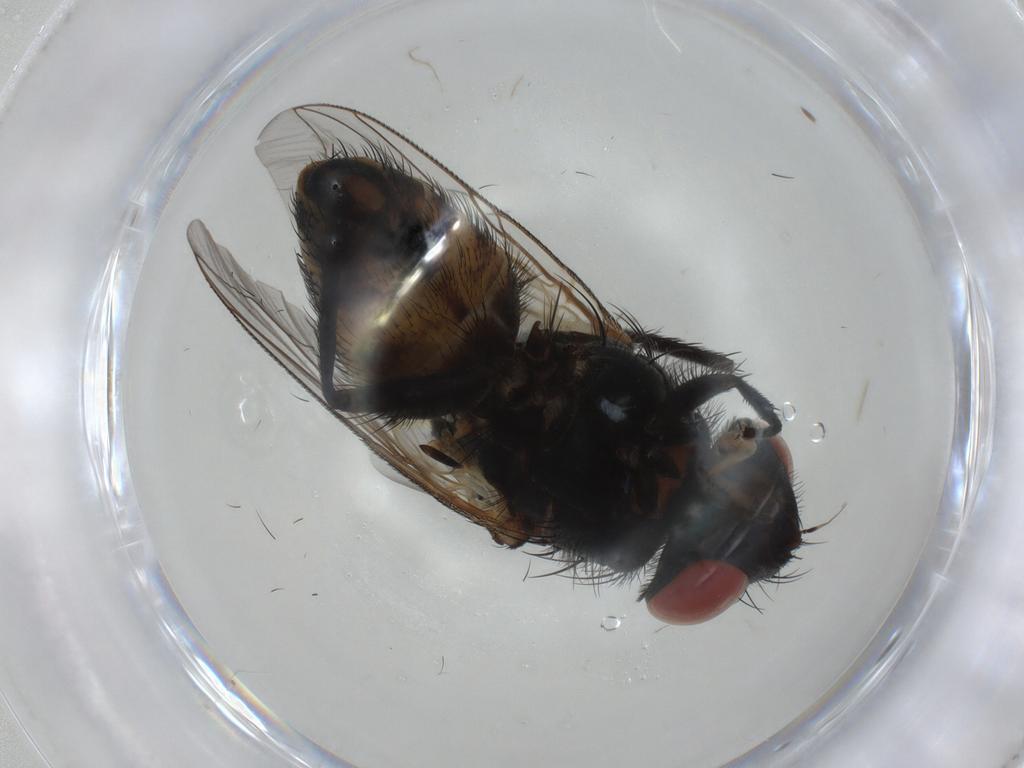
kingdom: Animalia
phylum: Arthropoda
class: Insecta
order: Diptera
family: Sarcophagidae
